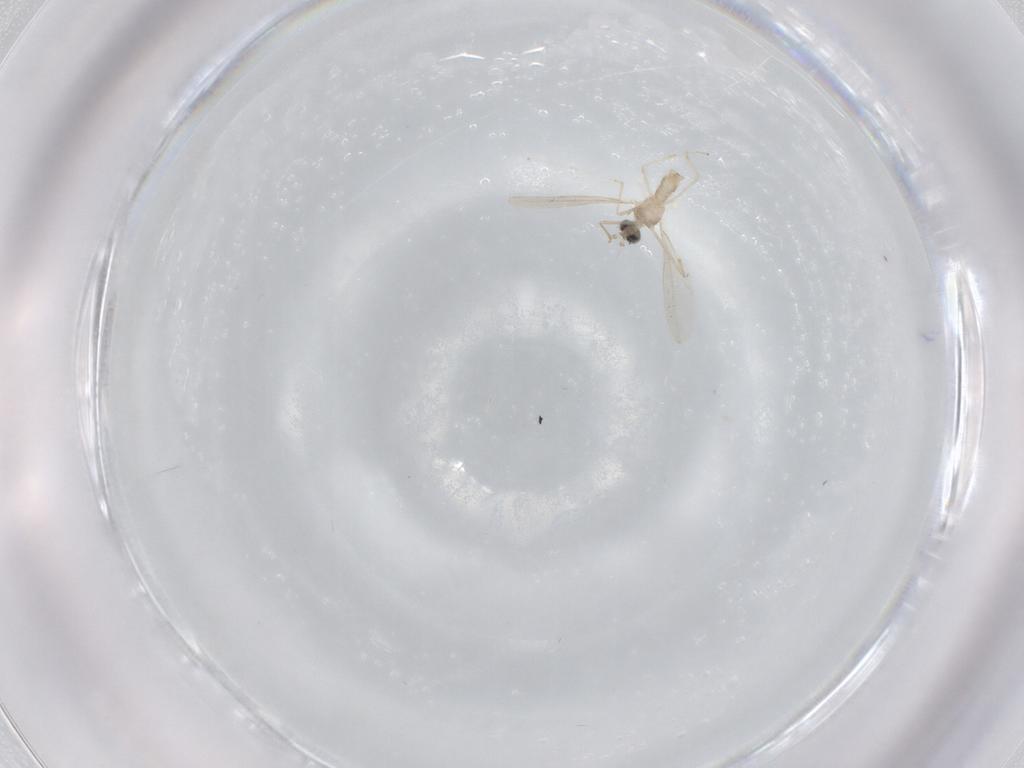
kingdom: Animalia
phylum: Arthropoda
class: Insecta
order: Diptera
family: Cecidomyiidae
